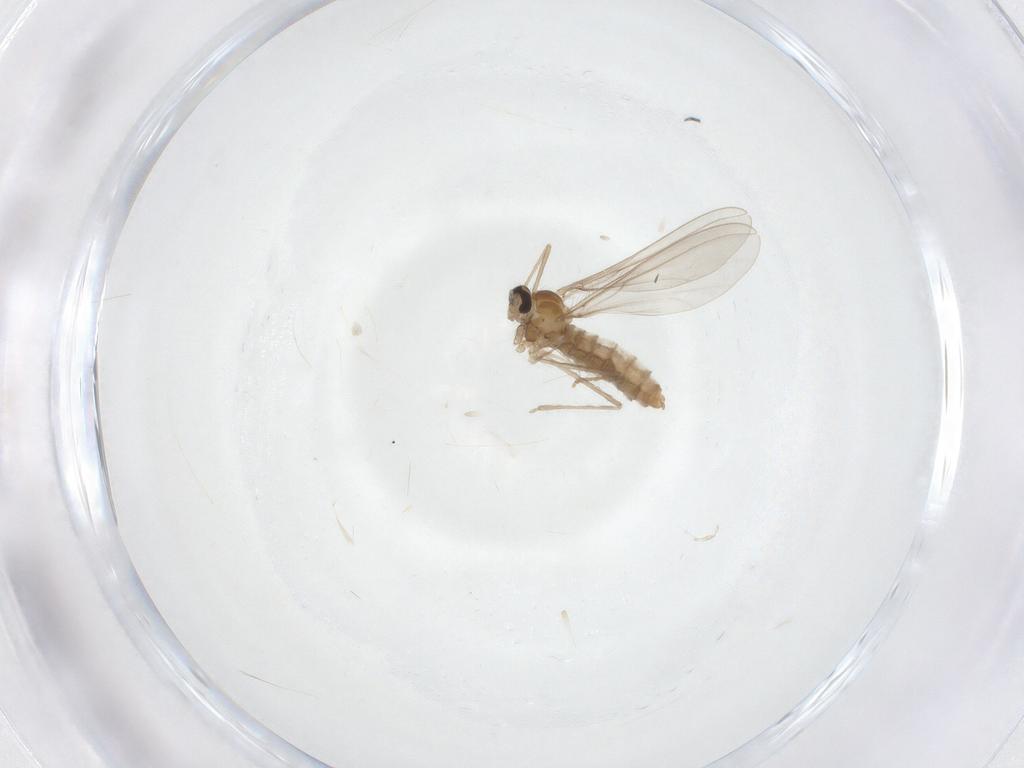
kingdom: Animalia
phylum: Arthropoda
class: Insecta
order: Diptera
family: Cecidomyiidae
